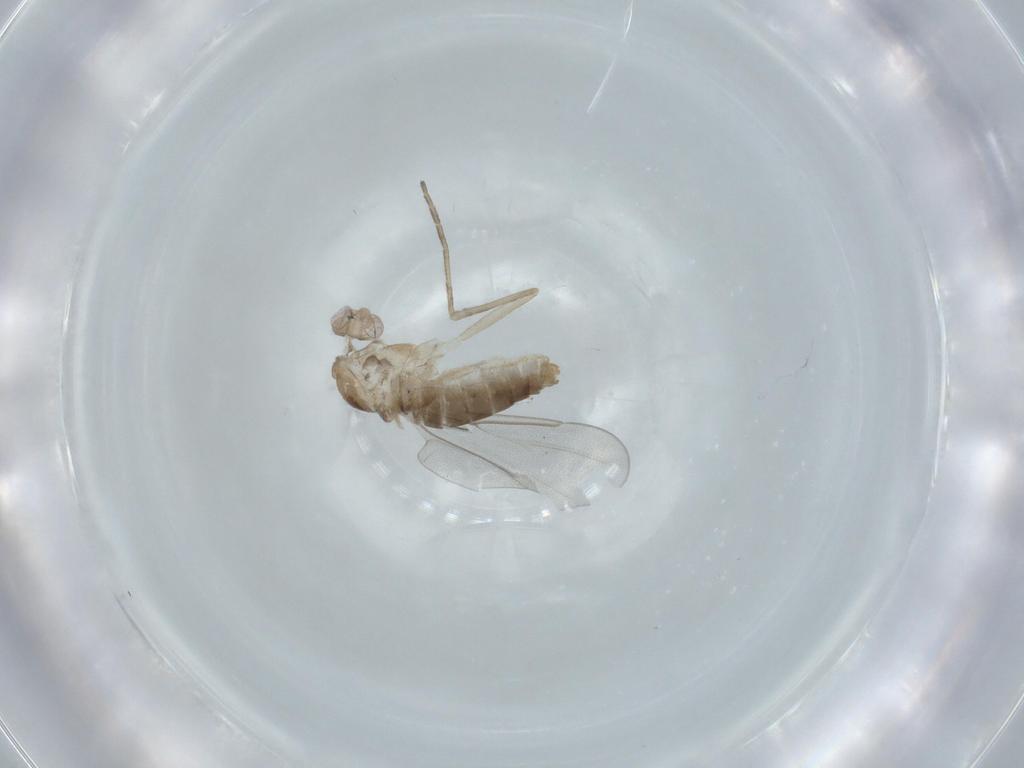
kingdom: Animalia
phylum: Arthropoda
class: Insecta
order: Diptera
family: Cecidomyiidae
